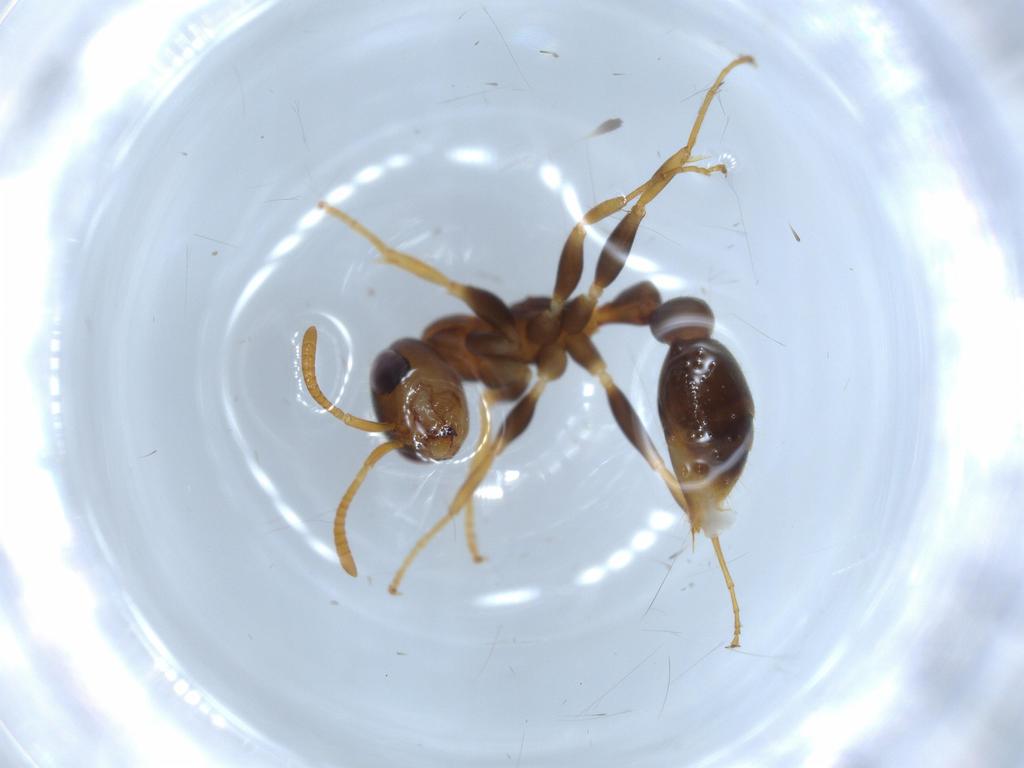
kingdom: Animalia
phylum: Arthropoda
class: Insecta
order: Hymenoptera
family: Formicidae
